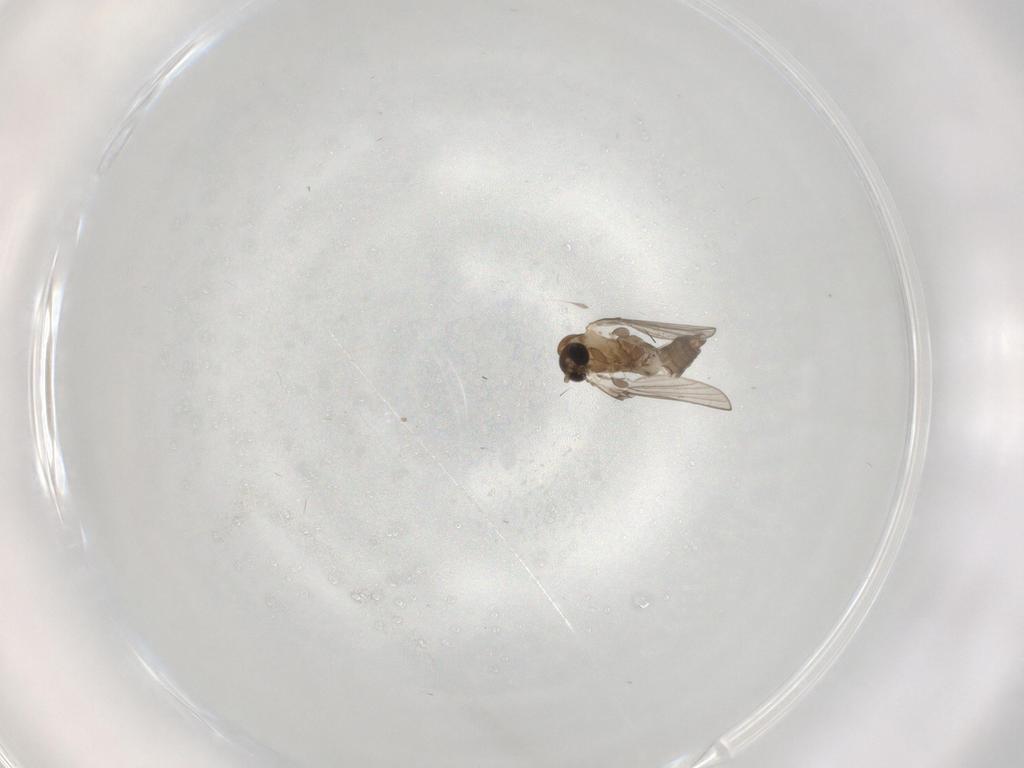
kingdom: Animalia
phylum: Arthropoda
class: Insecta
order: Diptera
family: Psychodidae
